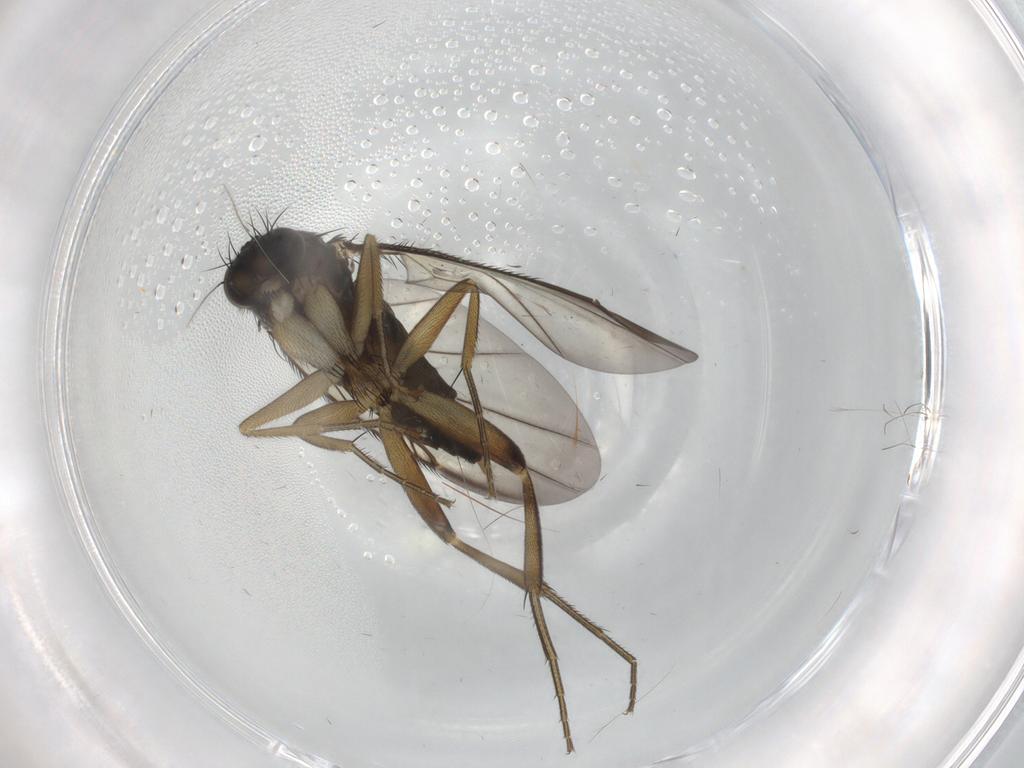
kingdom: Animalia
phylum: Arthropoda
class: Insecta
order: Diptera
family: Phoridae
